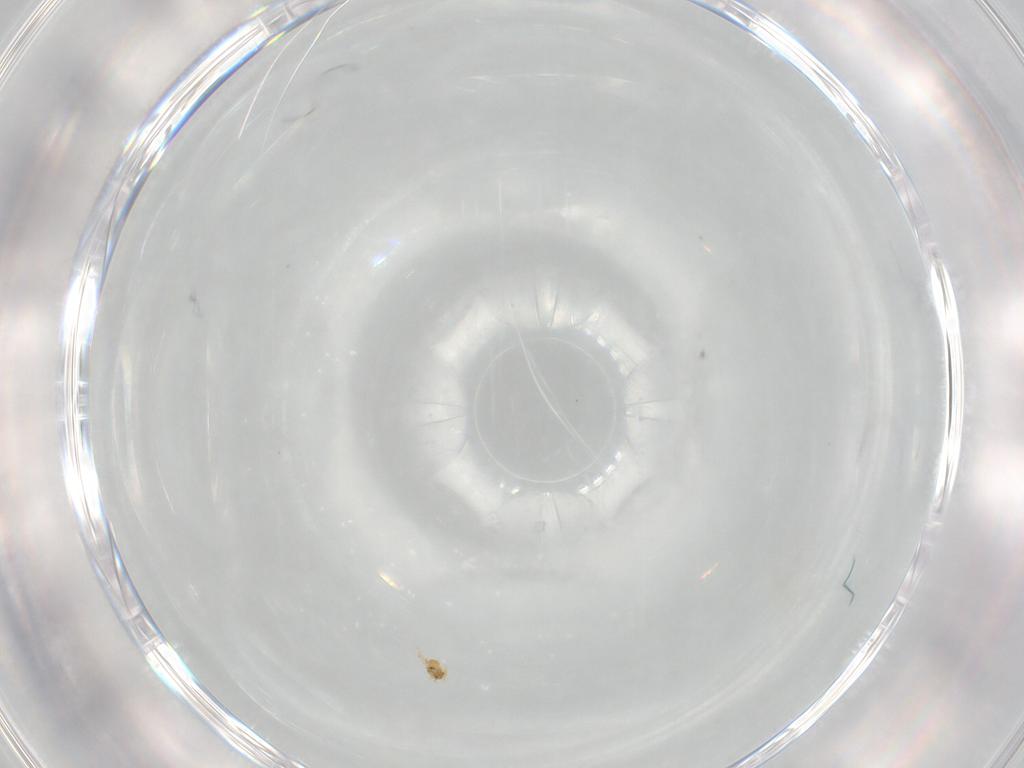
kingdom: Animalia
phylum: Arthropoda
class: Insecta
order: Hymenoptera
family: Mymaridae
